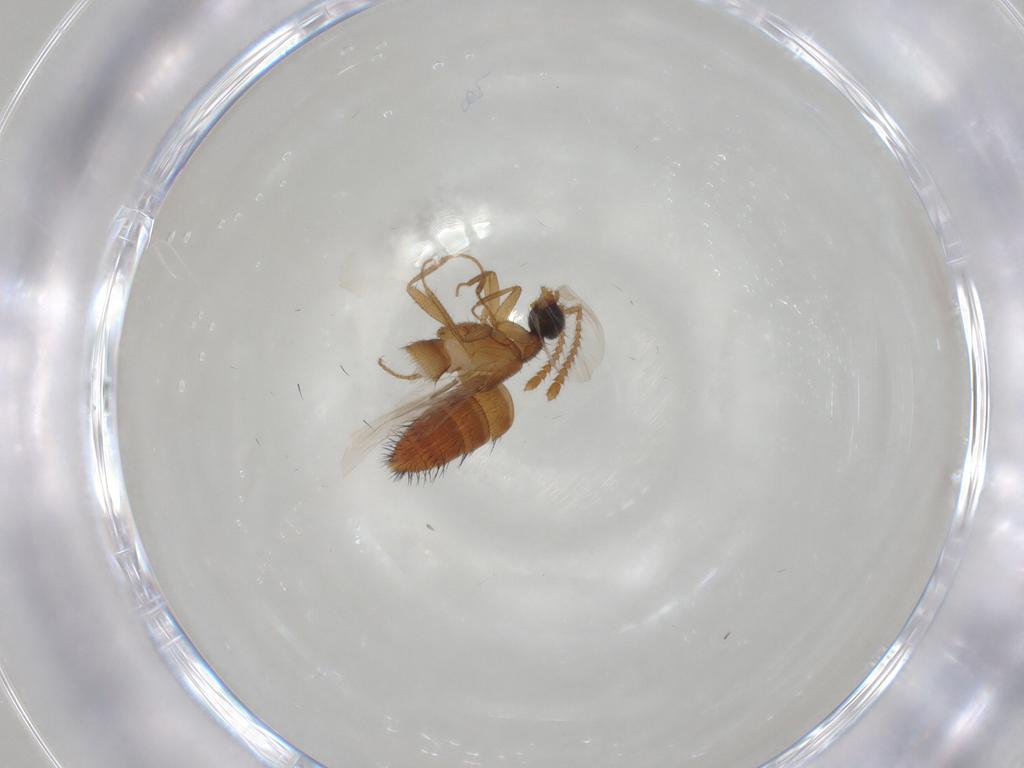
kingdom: Animalia
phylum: Arthropoda
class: Insecta
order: Coleoptera
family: Staphylinidae
